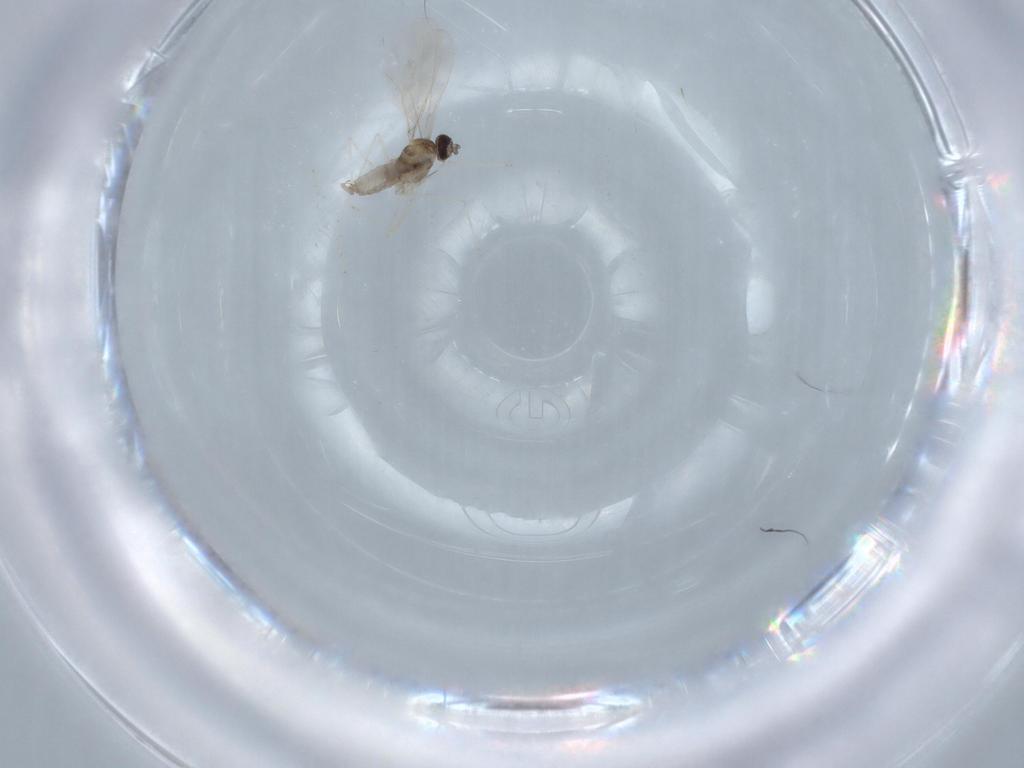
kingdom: Animalia
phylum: Arthropoda
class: Insecta
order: Diptera
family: Cecidomyiidae
